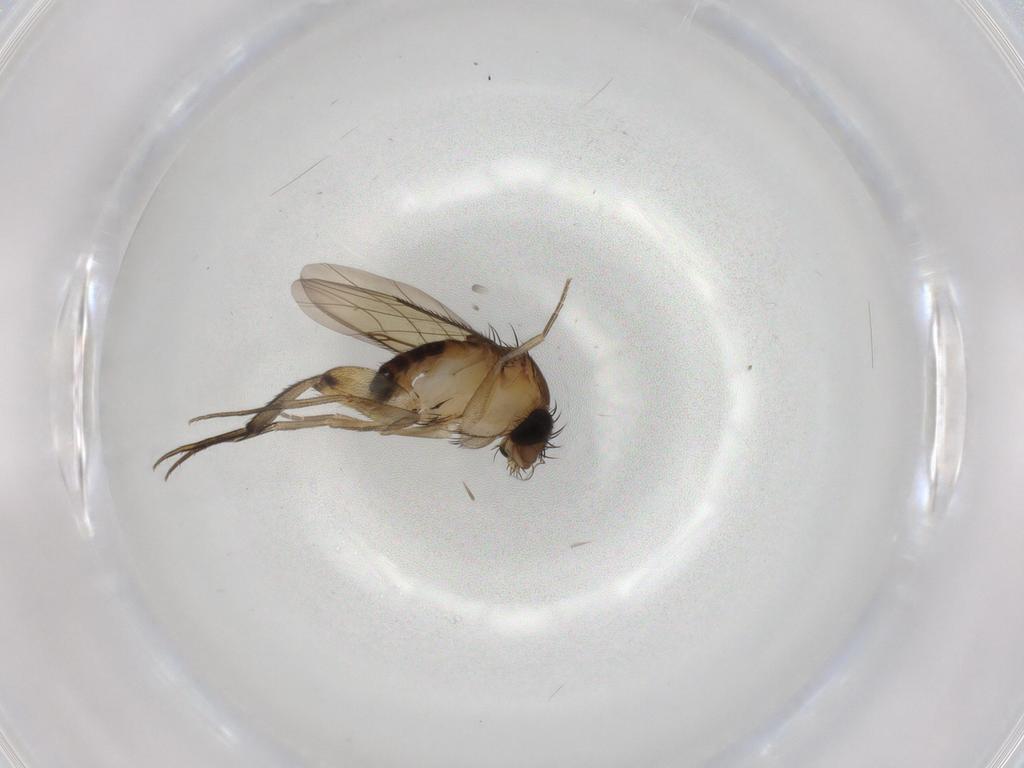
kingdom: Animalia
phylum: Arthropoda
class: Insecta
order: Diptera
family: Phoridae
